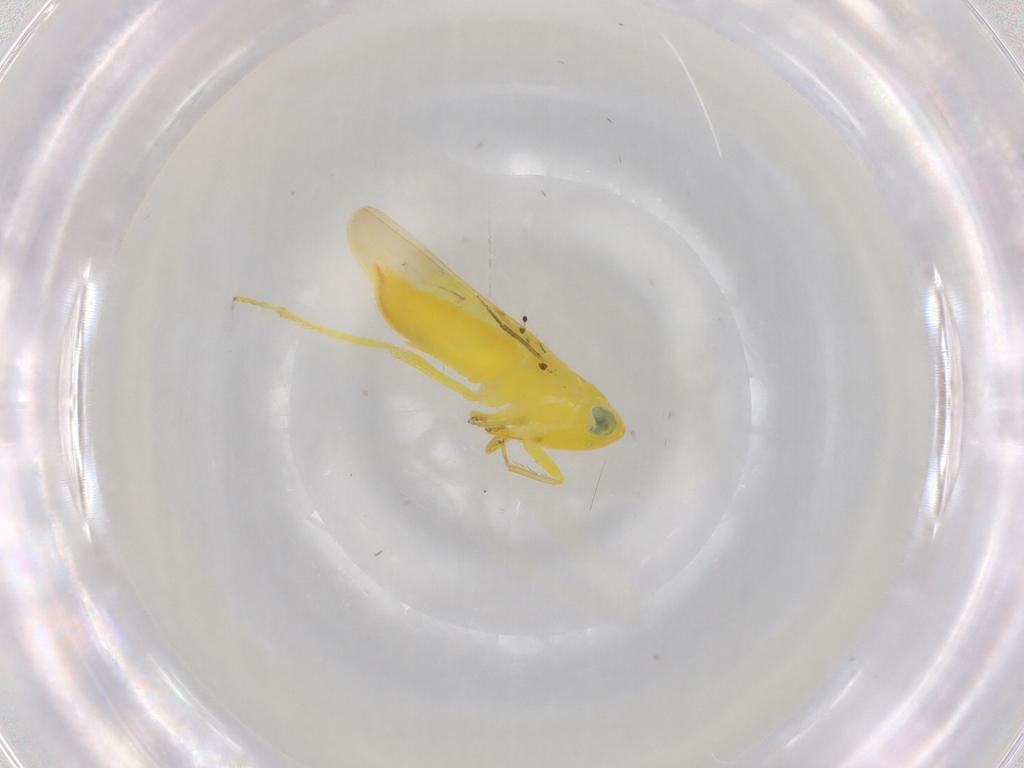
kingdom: Animalia
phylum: Arthropoda
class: Insecta
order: Hemiptera
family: Cicadellidae
